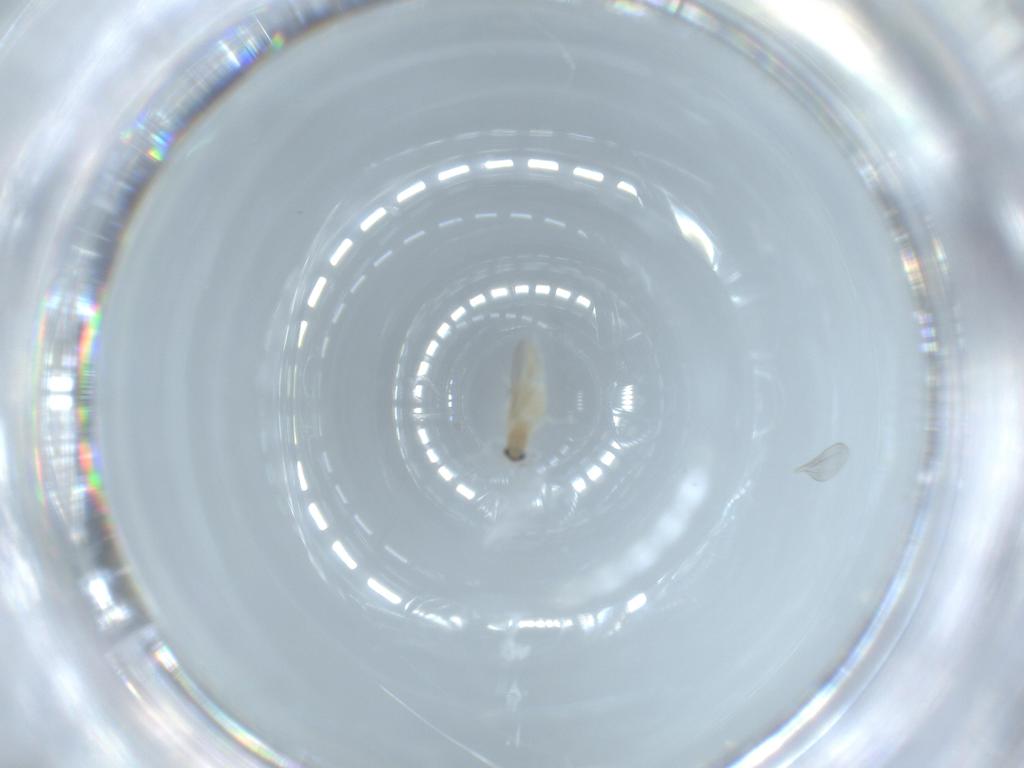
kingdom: Animalia
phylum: Arthropoda
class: Insecta
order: Diptera
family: Cecidomyiidae
